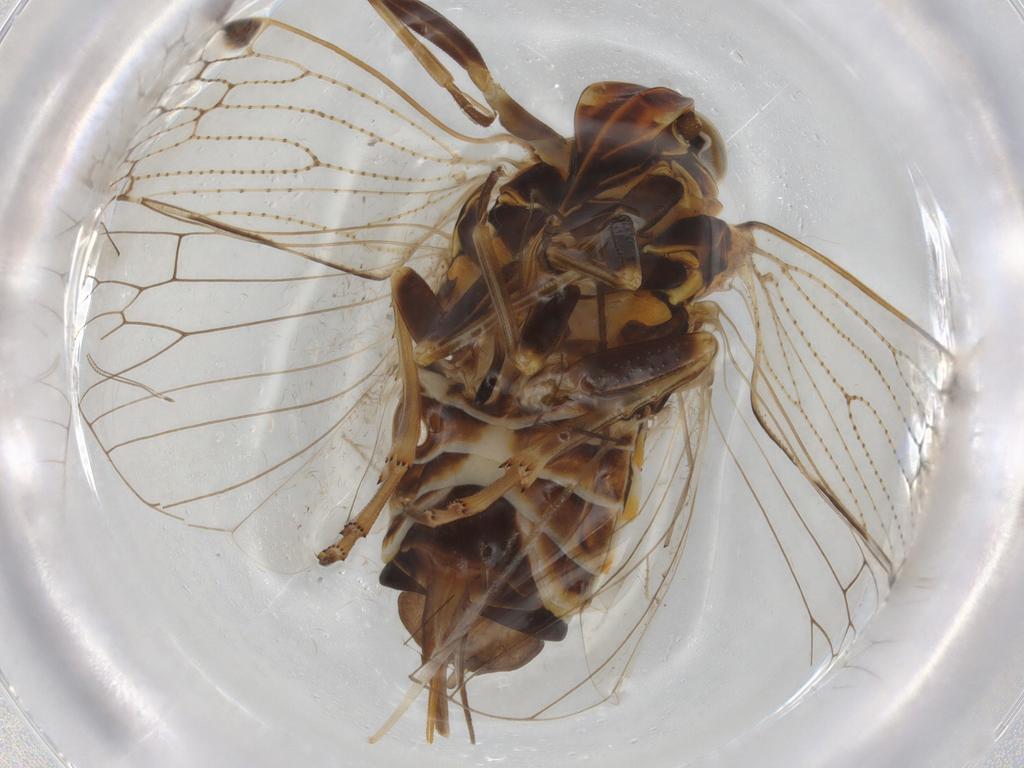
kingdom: Animalia
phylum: Arthropoda
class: Insecta
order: Hemiptera
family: Cixiidae
